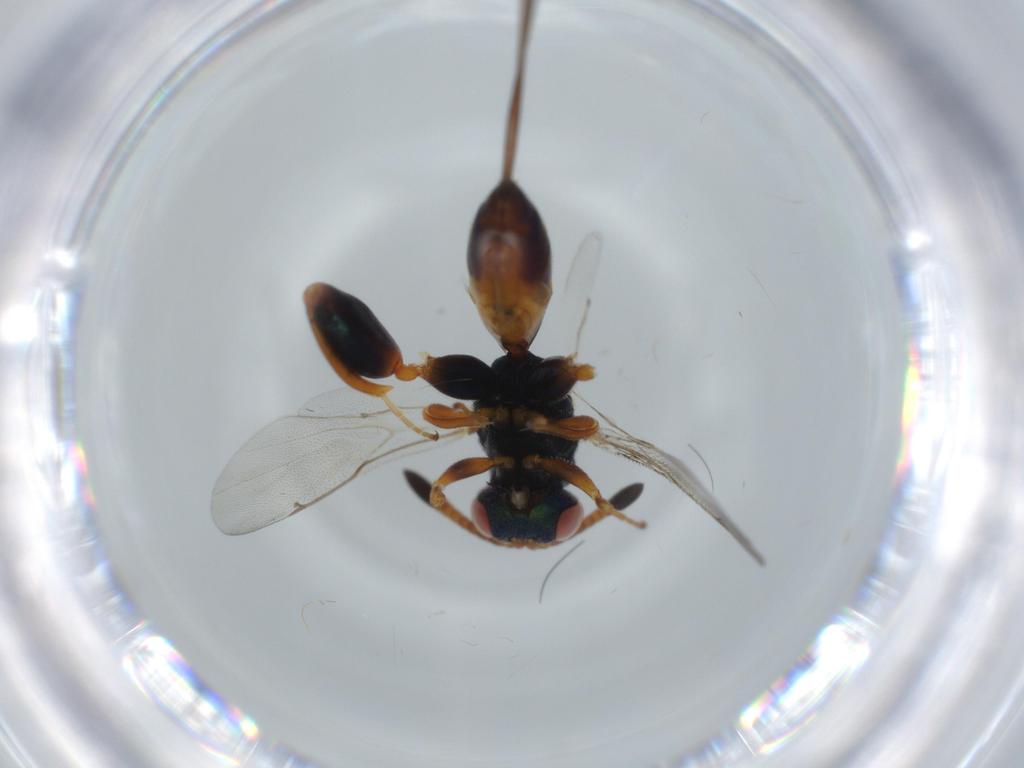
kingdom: Animalia
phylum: Arthropoda
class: Insecta
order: Hymenoptera
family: Torymidae
